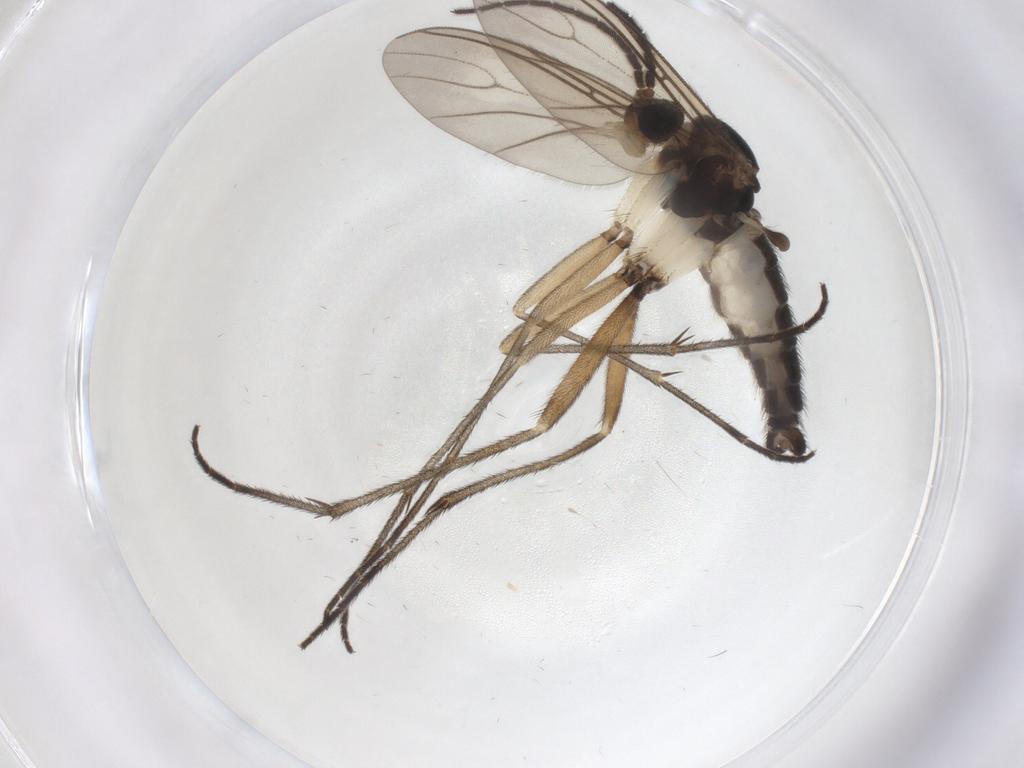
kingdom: Animalia
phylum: Arthropoda
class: Insecta
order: Diptera
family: Sciaridae
